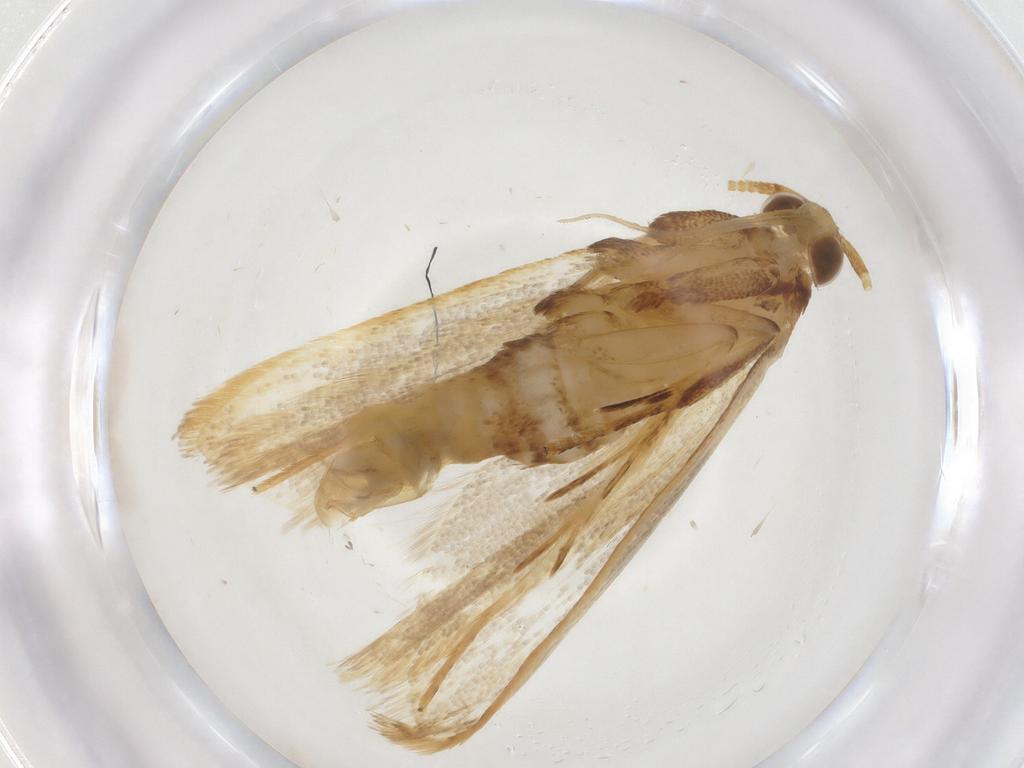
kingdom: Animalia
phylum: Arthropoda
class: Insecta
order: Lepidoptera
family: Lecithoceridae
